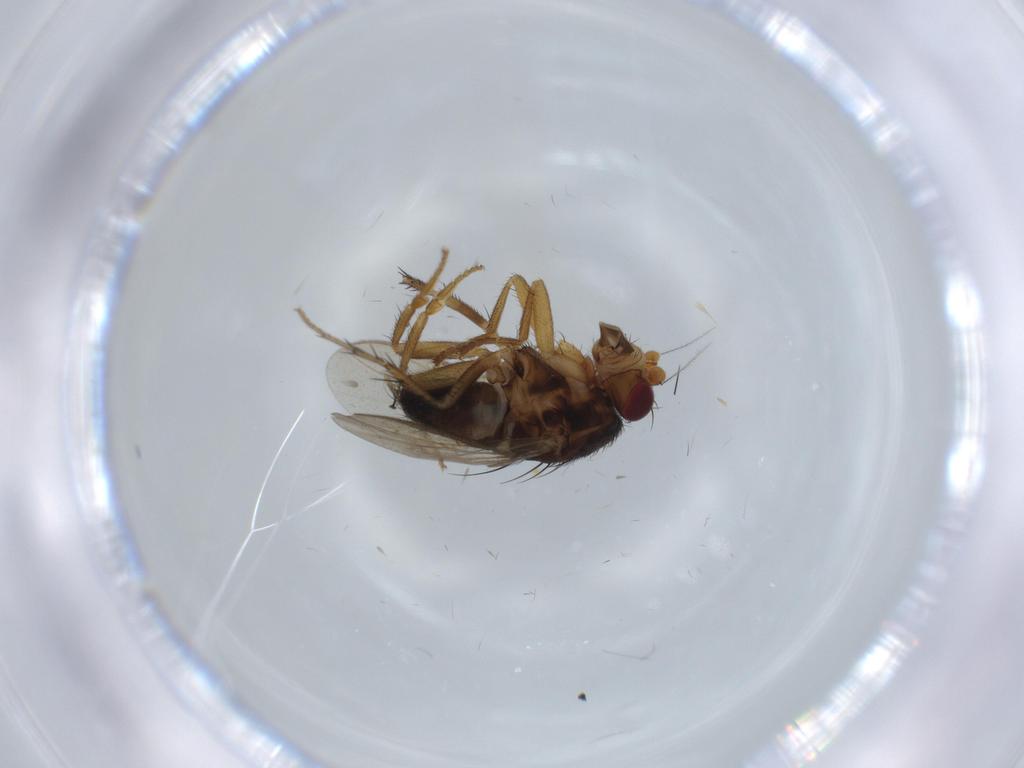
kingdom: Animalia
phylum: Arthropoda
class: Insecta
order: Diptera
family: Sphaeroceridae
